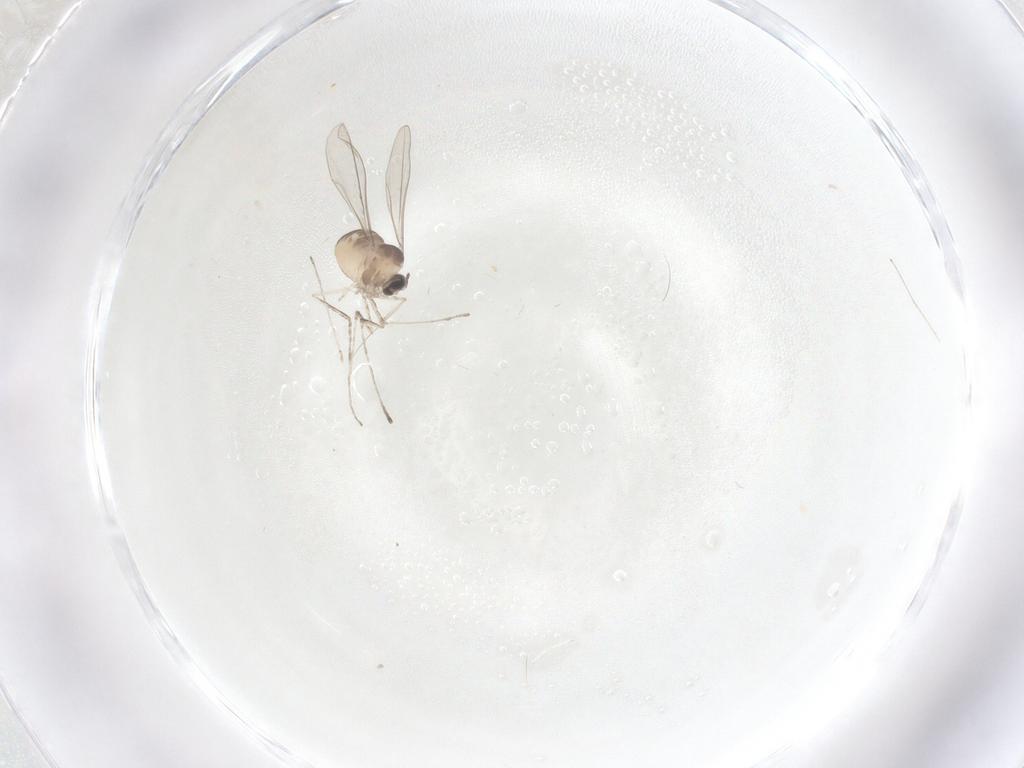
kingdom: Animalia
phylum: Arthropoda
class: Insecta
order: Diptera
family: Cecidomyiidae
